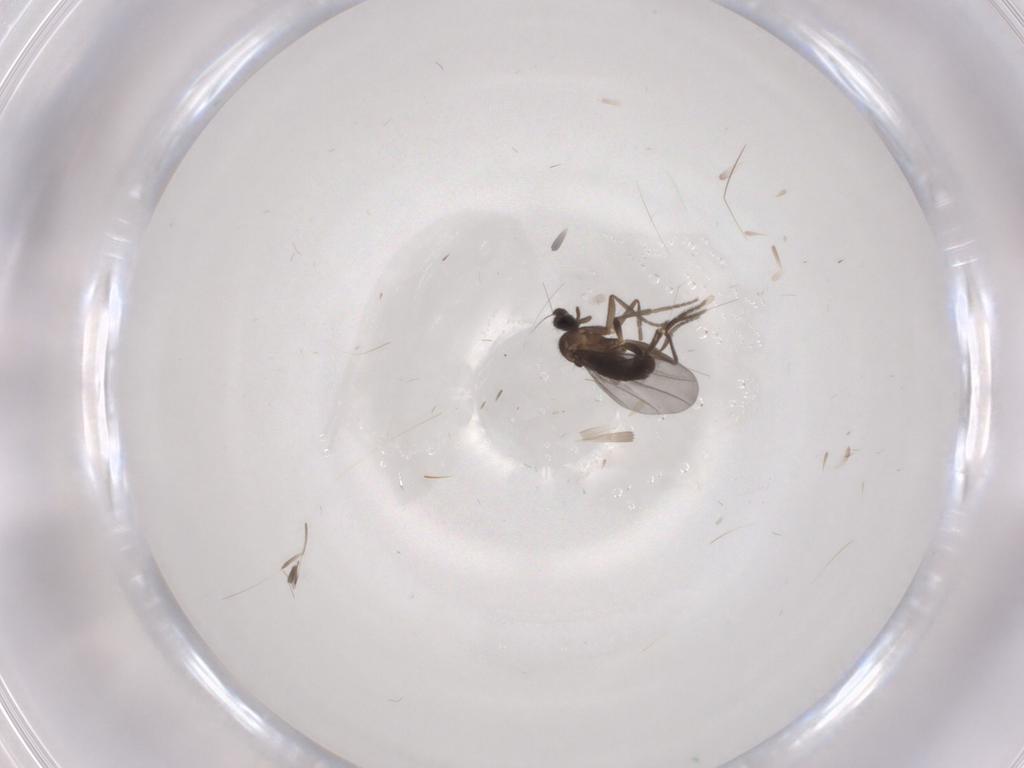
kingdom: Animalia
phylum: Arthropoda
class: Insecta
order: Diptera
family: Phoridae
